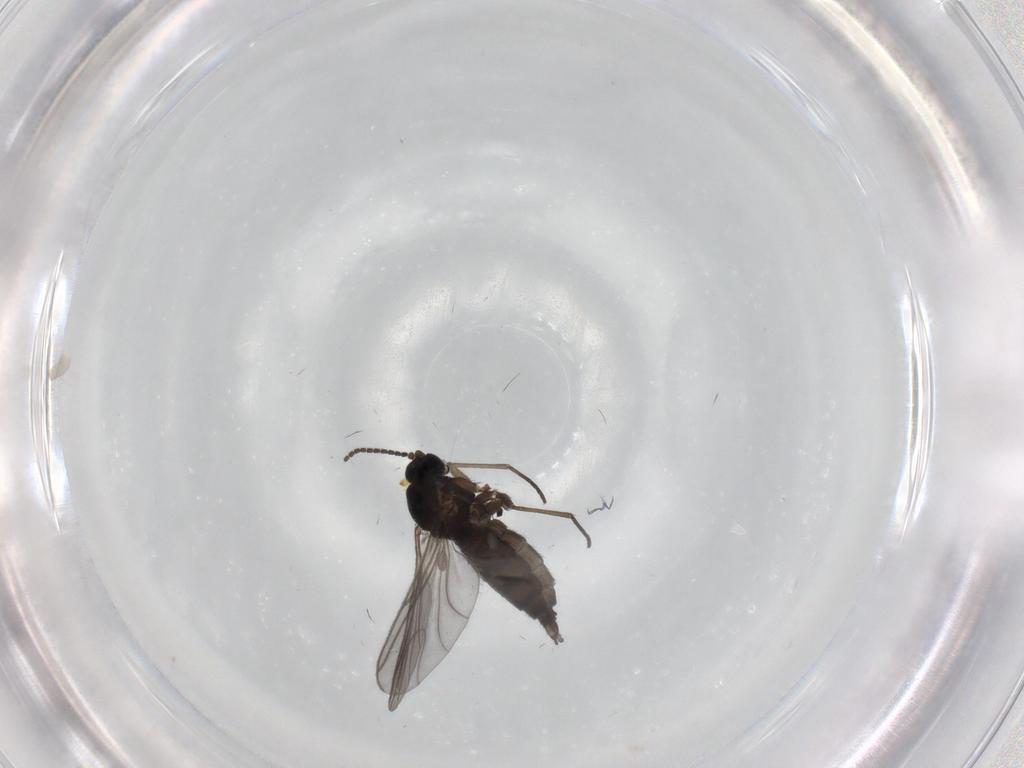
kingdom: Animalia
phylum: Arthropoda
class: Insecta
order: Diptera
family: Sciaridae
